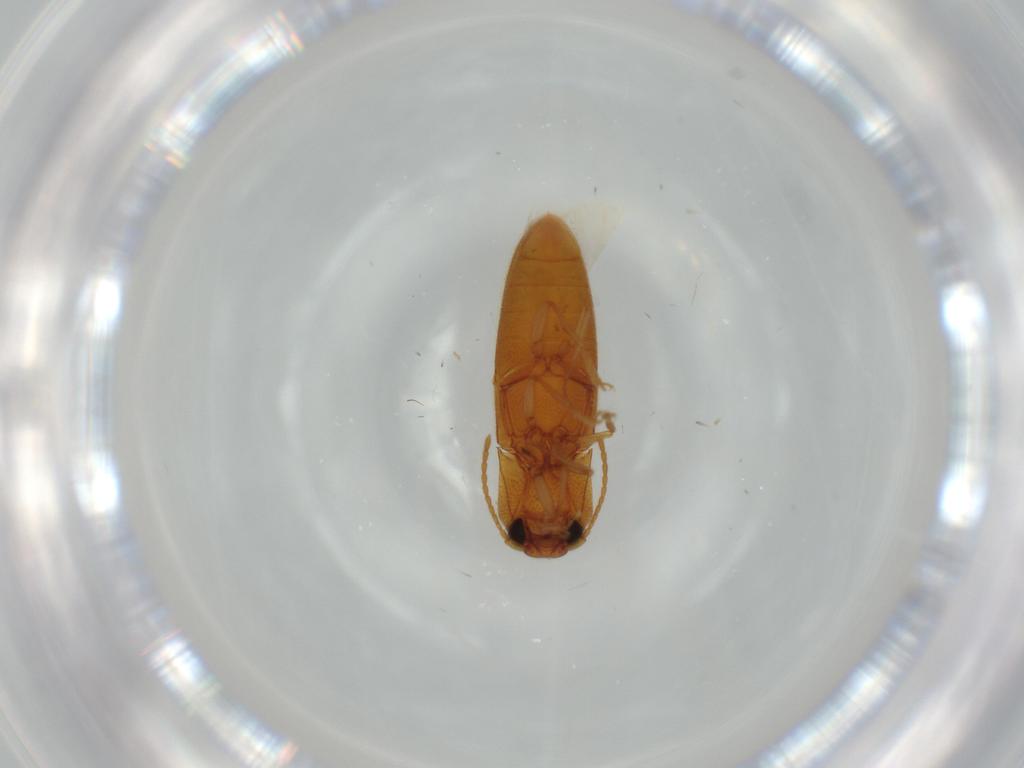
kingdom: Animalia
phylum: Arthropoda
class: Insecta
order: Coleoptera
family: Elateridae
